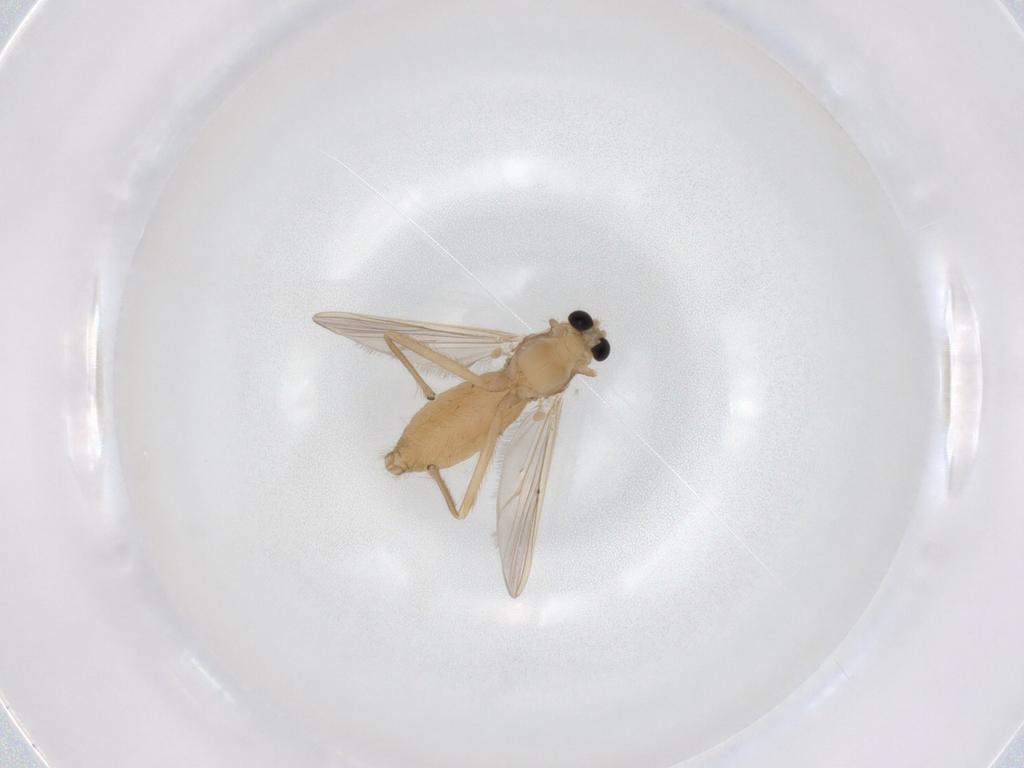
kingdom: Animalia
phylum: Arthropoda
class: Insecta
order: Diptera
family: Chironomidae
